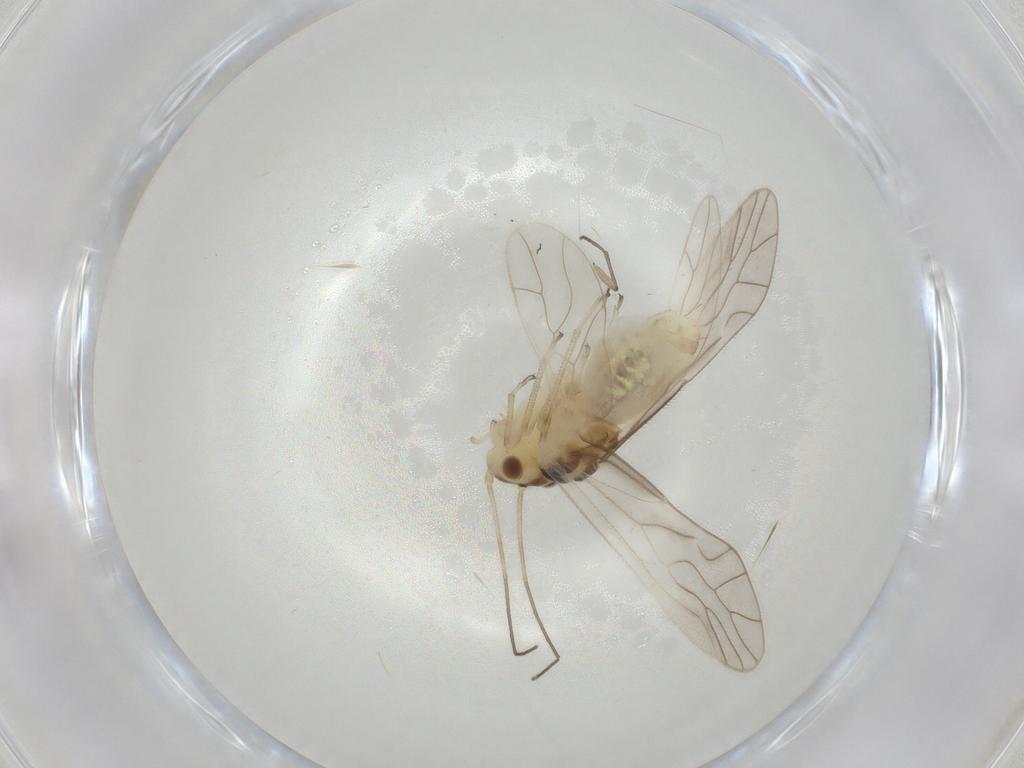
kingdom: Animalia
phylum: Arthropoda
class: Insecta
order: Psocodea
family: Caeciliusidae
